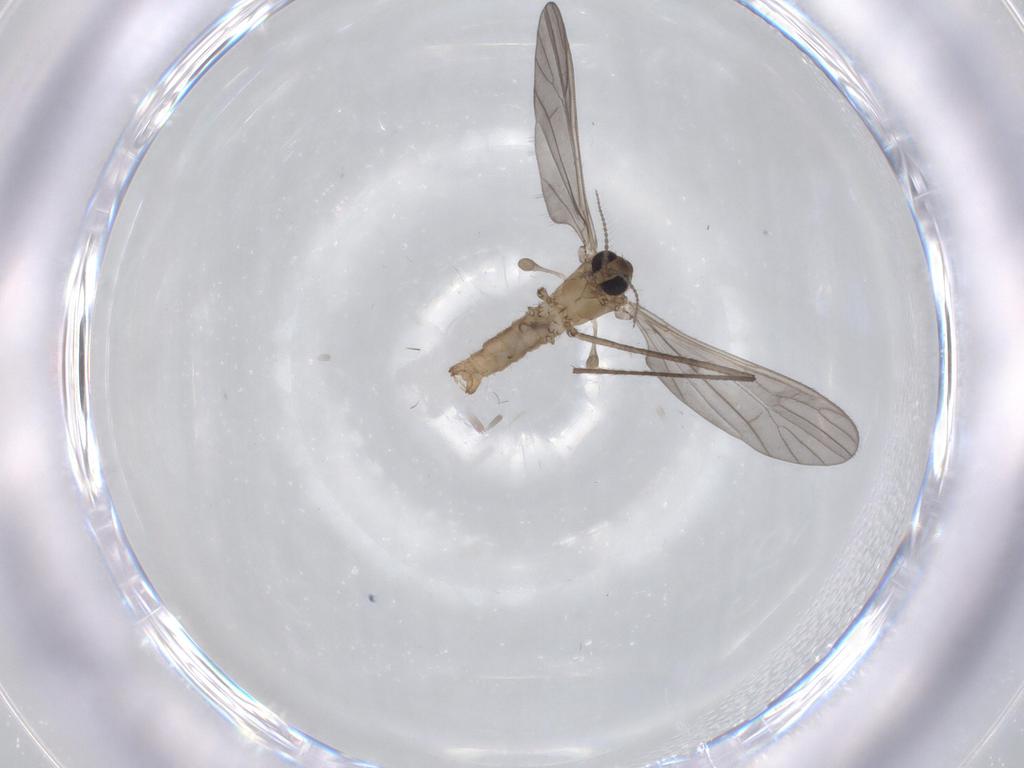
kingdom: Animalia
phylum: Arthropoda
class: Insecta
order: Diptera
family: Cecidomyiidae
